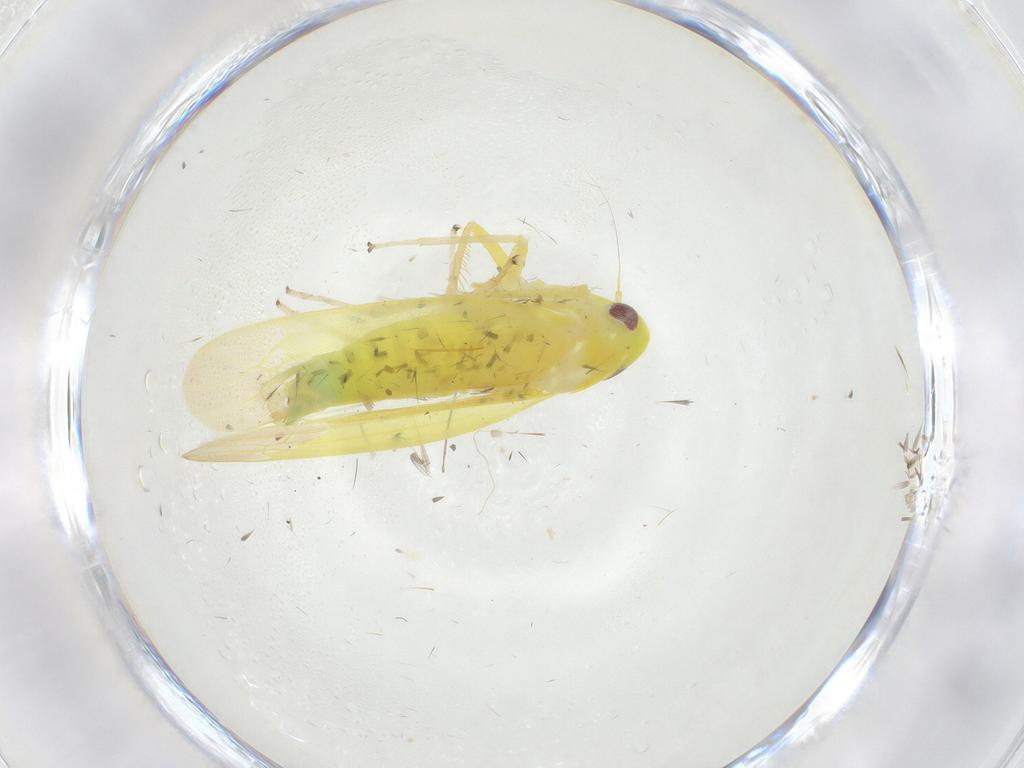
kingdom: Animalia
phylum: Arthropoda
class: Insecta
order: Hemiptera
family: Cicadellidae
